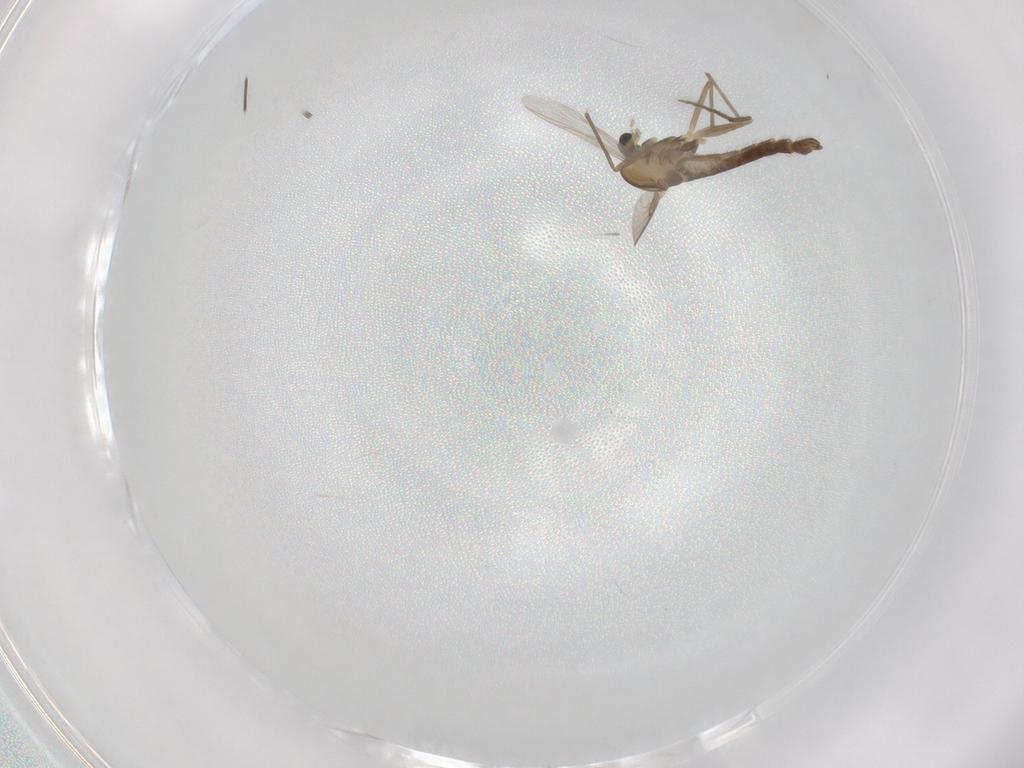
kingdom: Animalia
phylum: Arthropoda
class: Insecta
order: Diptera
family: Chironomidae
